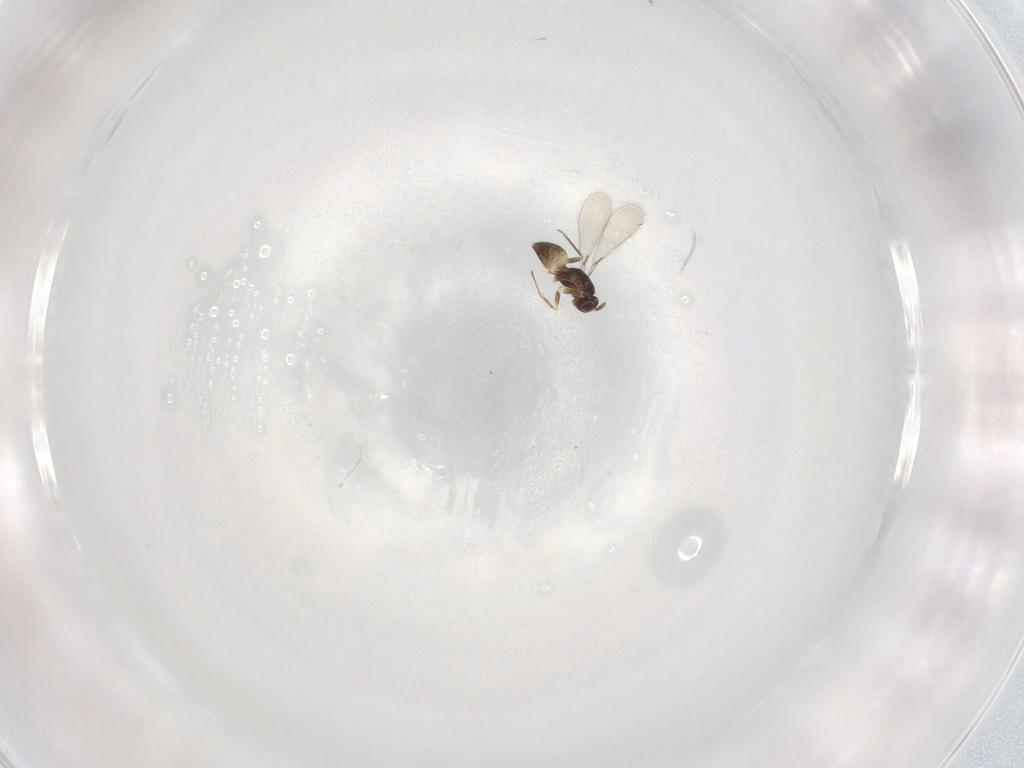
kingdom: Animalia
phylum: Arthropoda
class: Insecta
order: Hymenoptera
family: Mymaridae
